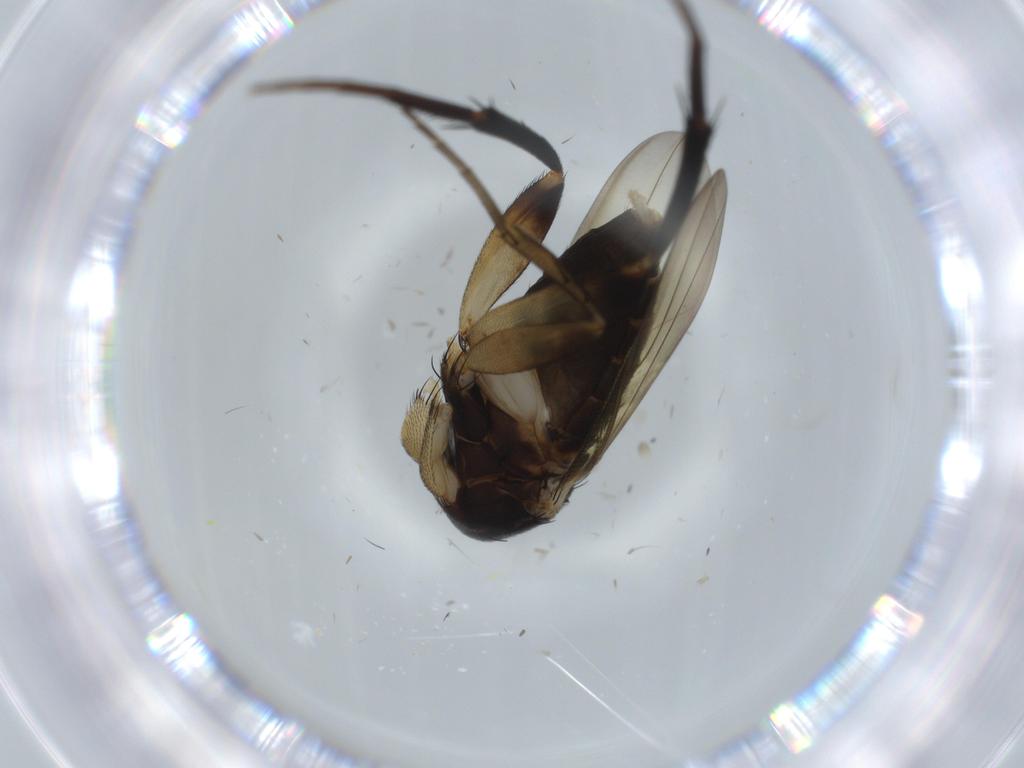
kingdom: Animalia
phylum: Arthropoda
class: Insecta
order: Diptera
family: Phoridae
